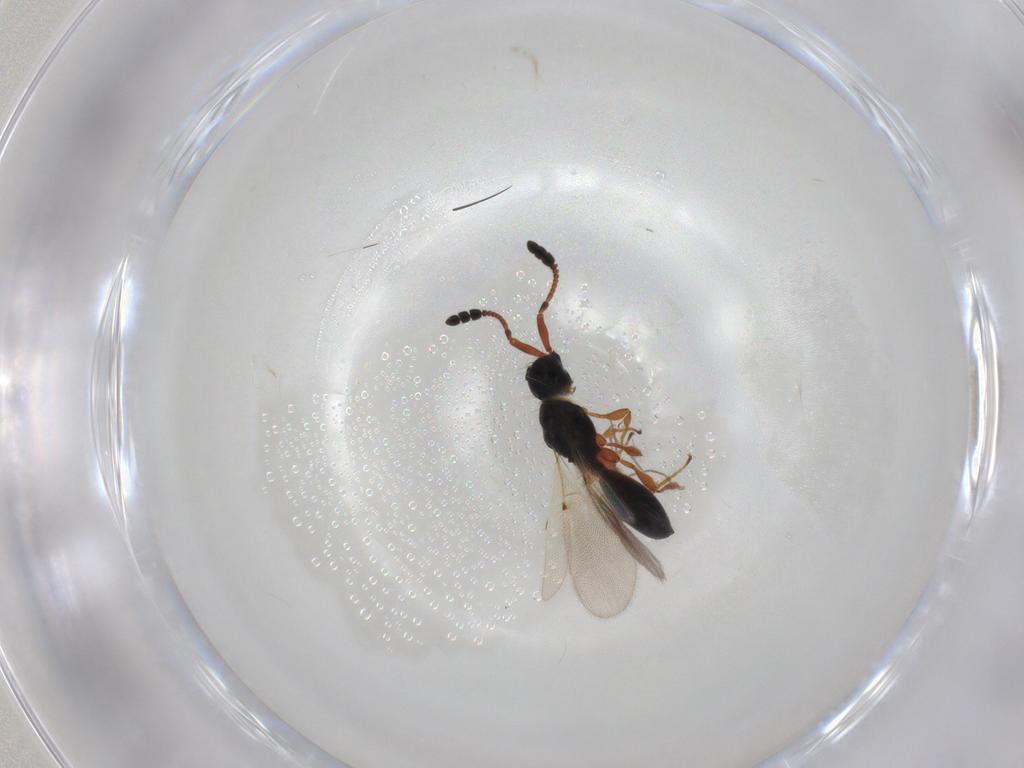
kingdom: Animalia
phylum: Arthropoda
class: Insecta
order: Hymenoptera
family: Diapriidae
